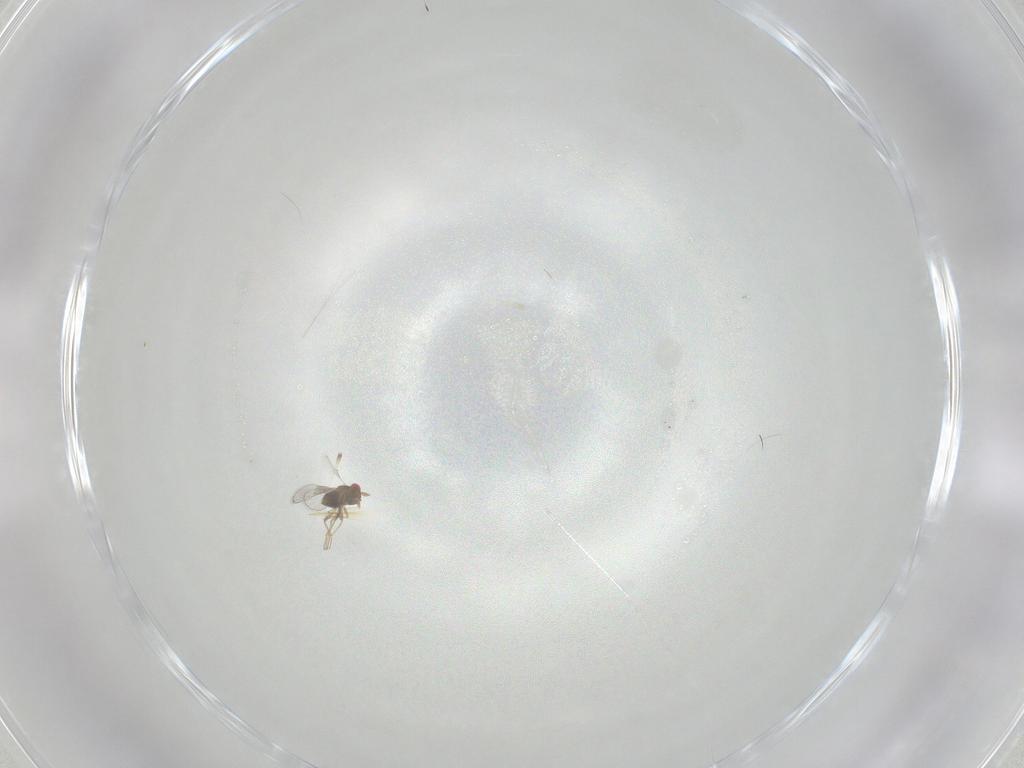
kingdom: Animalia
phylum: Arthropoda
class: Insecta
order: Hymenoptera
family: Trichogrammatidae
